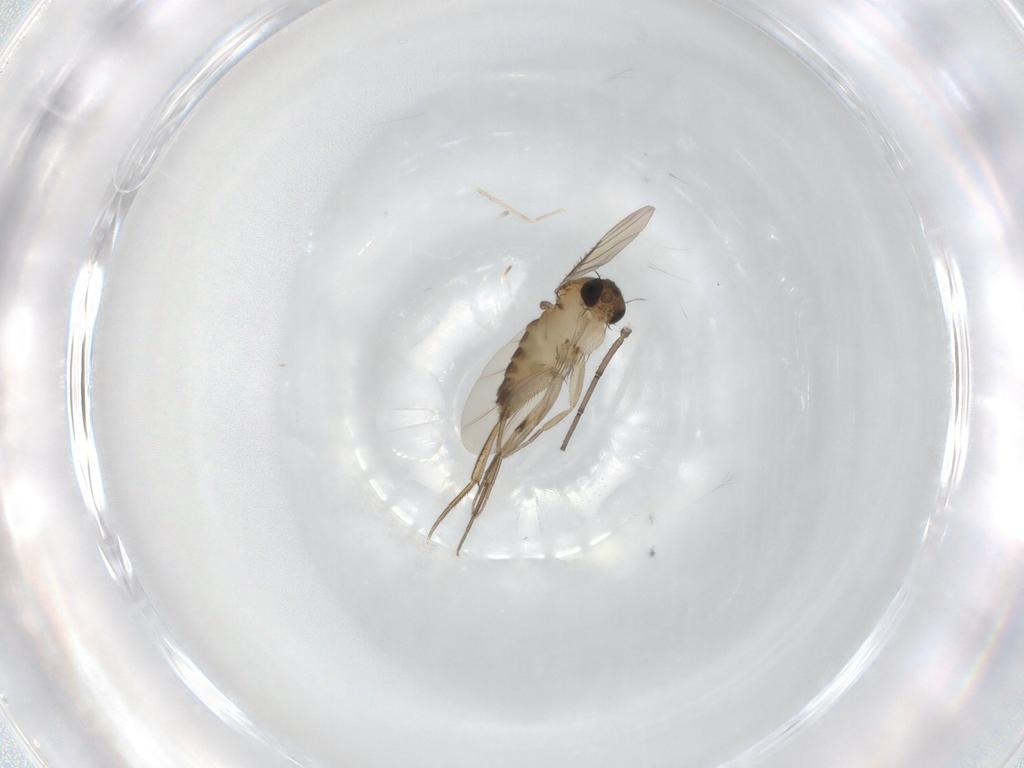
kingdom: Animalia
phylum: Arthropoda
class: Insecta
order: Diptera
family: Phoridae
